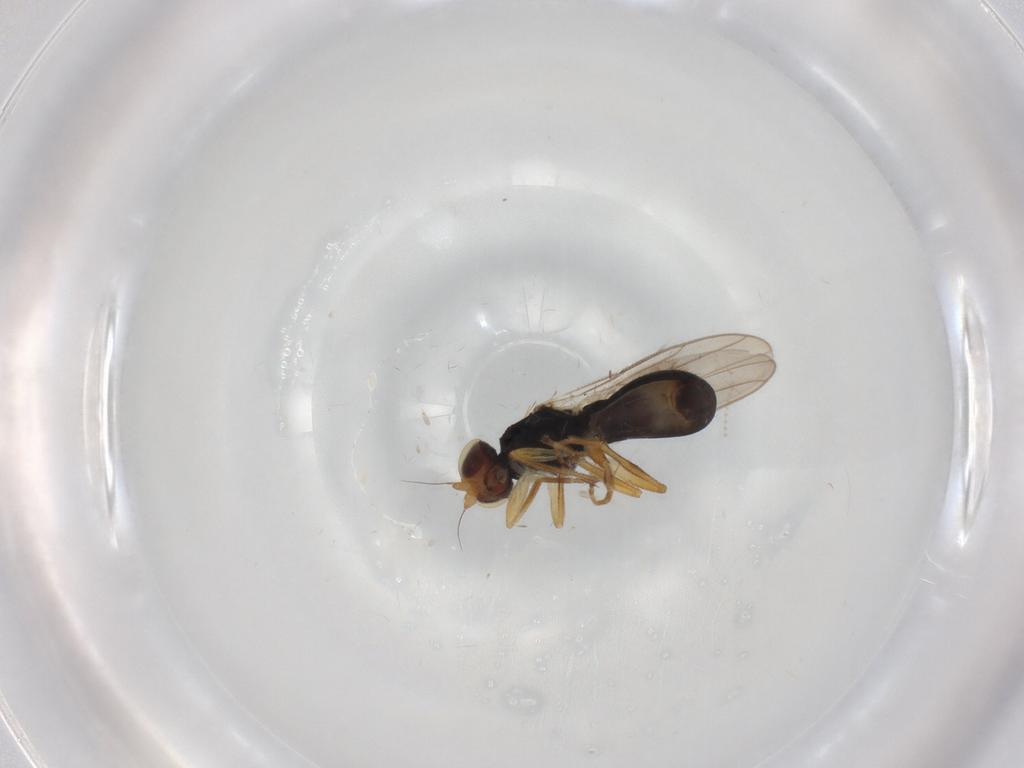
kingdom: Animalia
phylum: Arthropoda
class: Insecta
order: Diptera
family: Chloropidae
